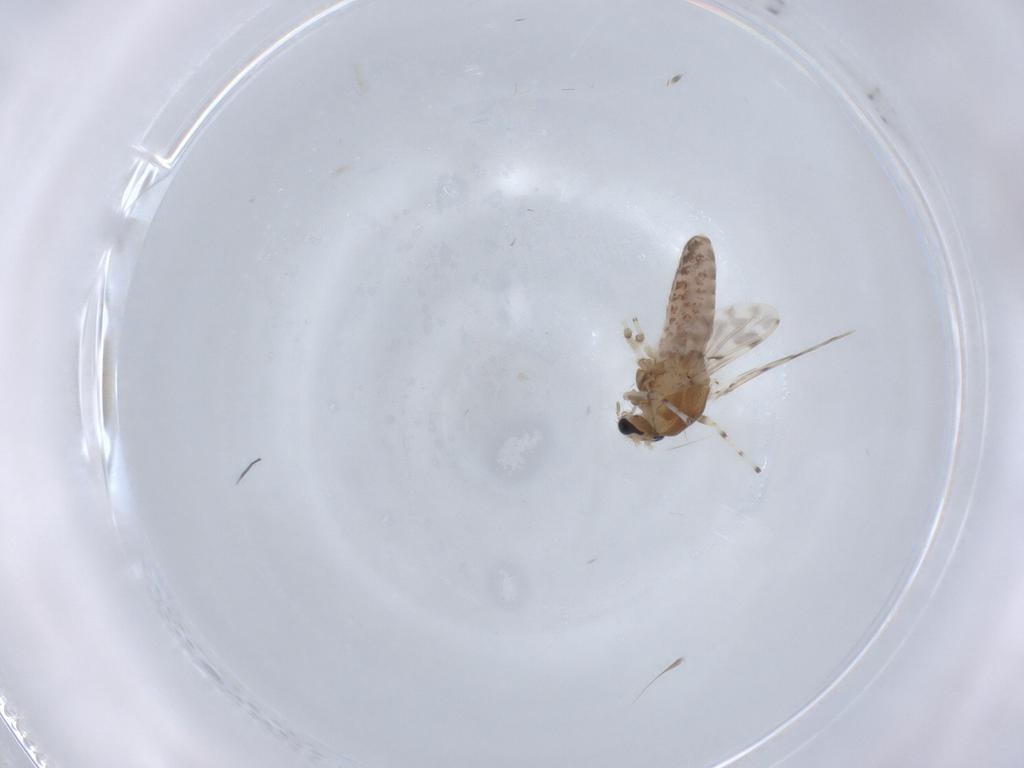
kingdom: Animalia
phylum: Arthropoda
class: Insecta
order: Diptera
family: Chironomidae
